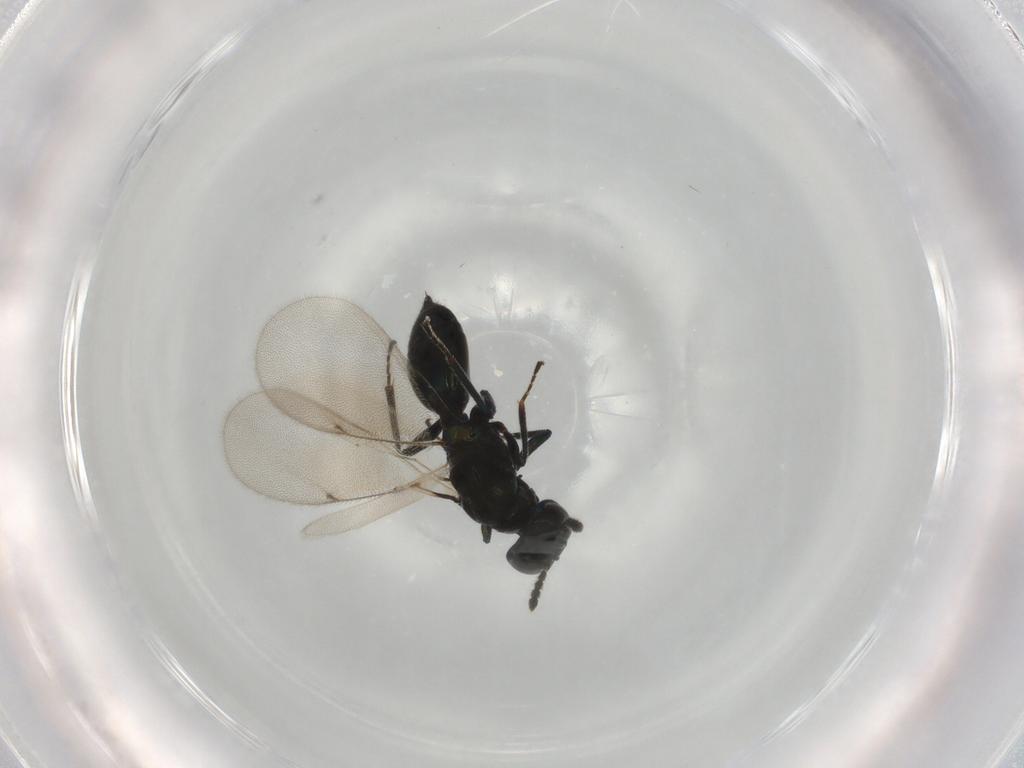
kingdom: Animalia
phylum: Arthropoda
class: Insecta
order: Hymenoptera
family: Eulophidae
